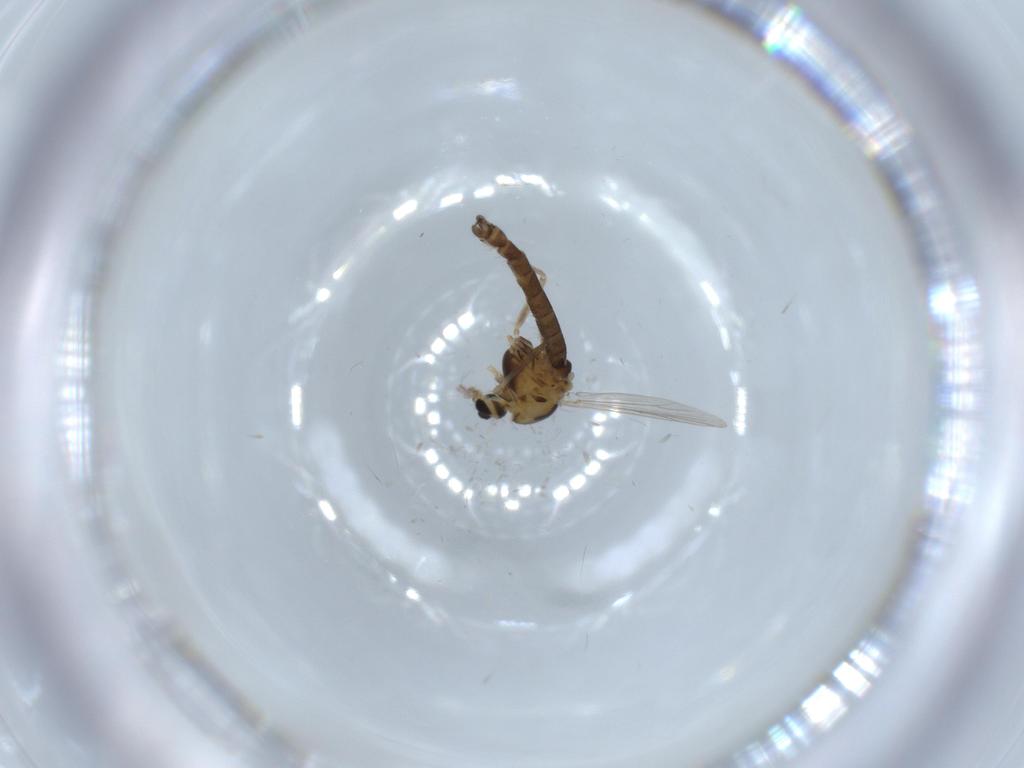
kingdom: Animalia
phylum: Arthropoda
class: Insecta
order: Diptera
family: Chironomidae
